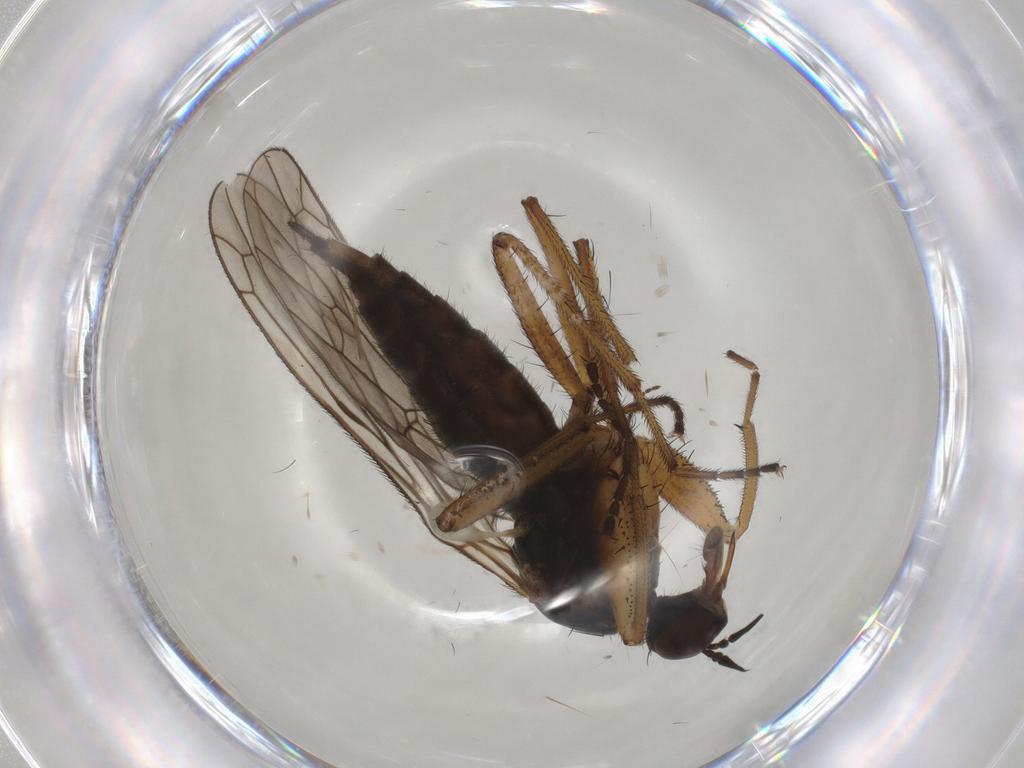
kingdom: Animalia
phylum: Arthropoda
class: Insecta
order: Diptera
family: Empididae
